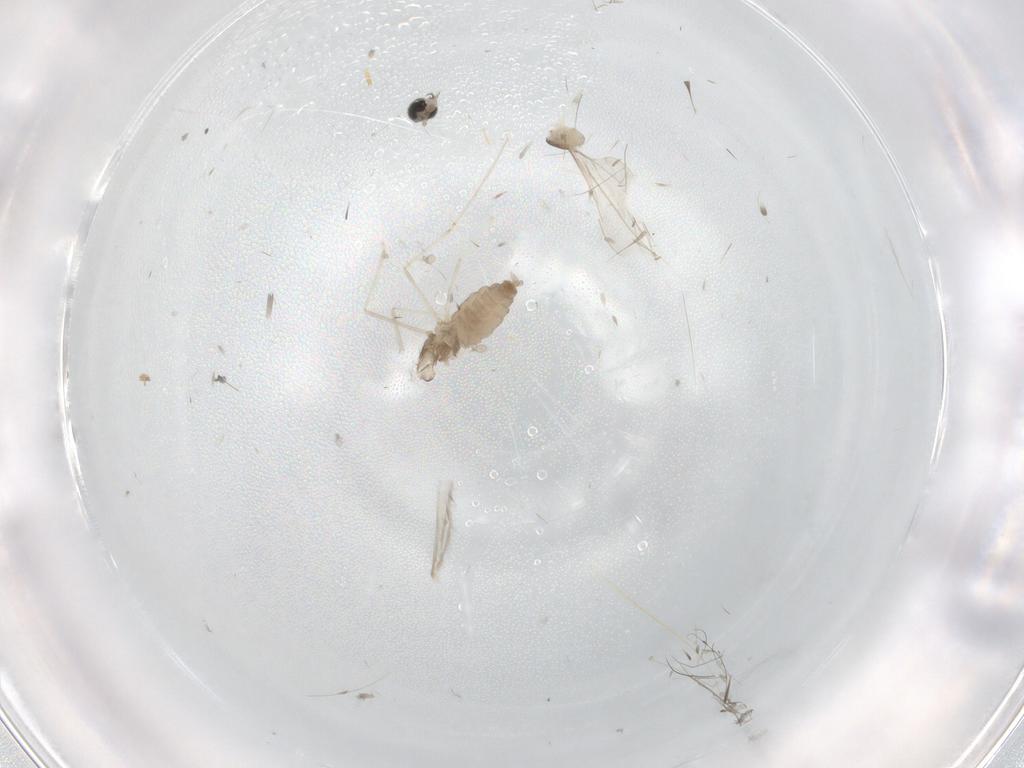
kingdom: Animalia
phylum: Arthropoda
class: Insecta
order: Diptera
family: Cecidomyiidae
